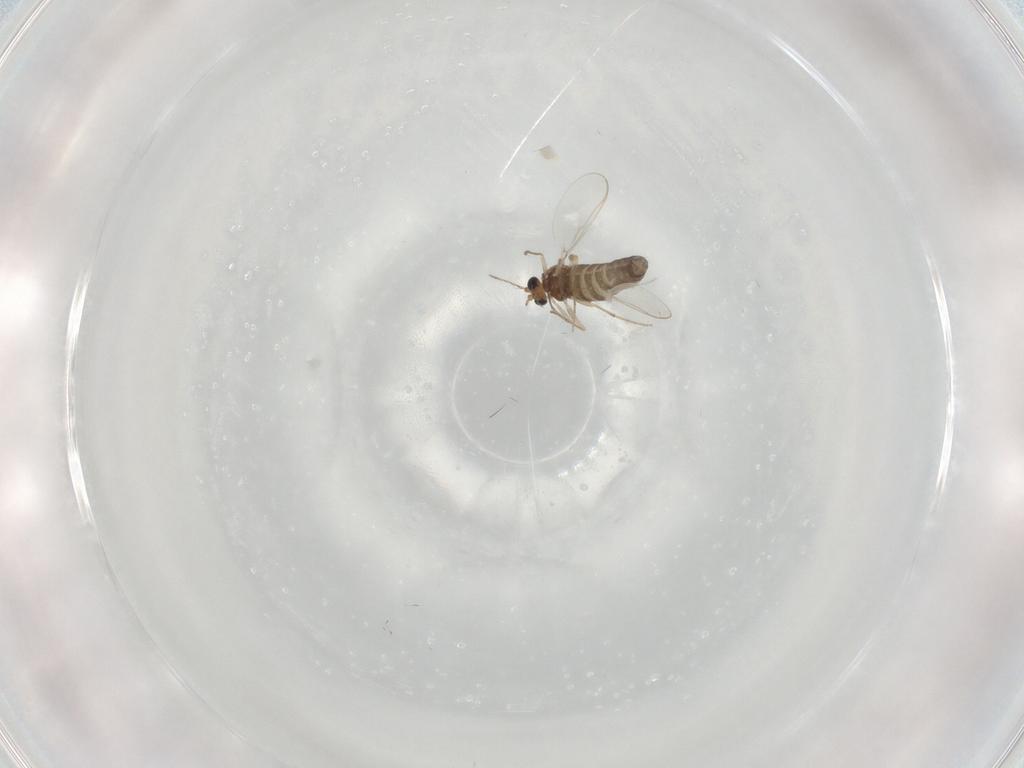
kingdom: Animalia
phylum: Arthropoda
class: Insecta
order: Diptera
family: Cecidomyiidae
